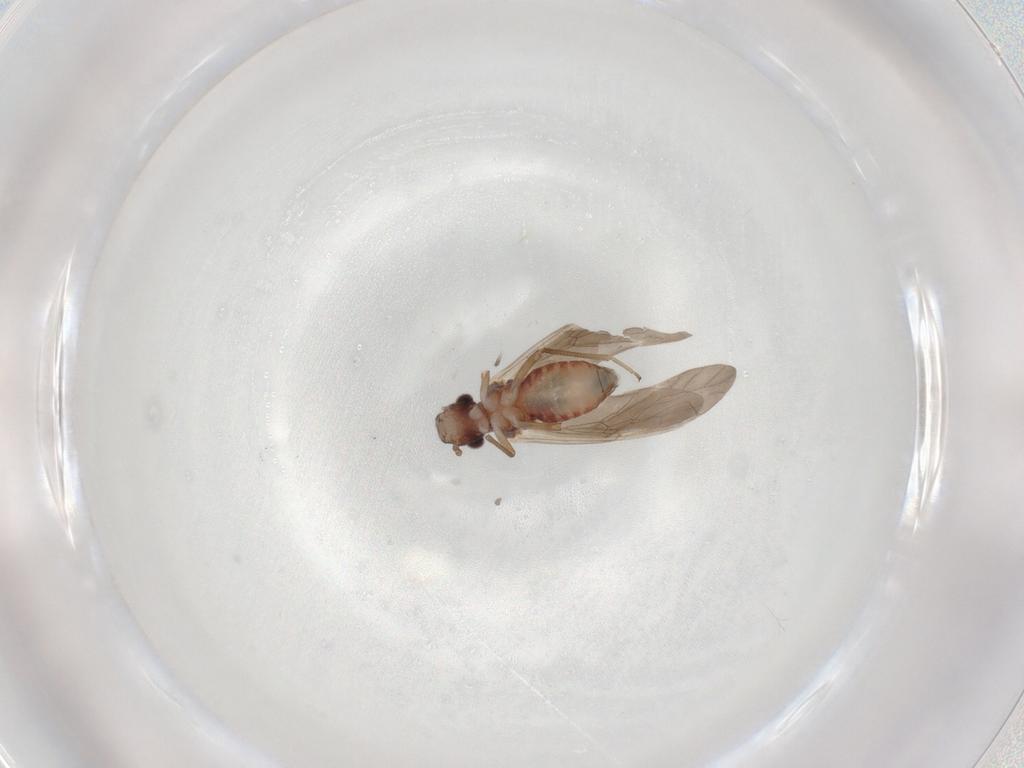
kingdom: Animalia
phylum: Arthropoda
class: Insecta
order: Psocodea
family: Caeciliusidae
